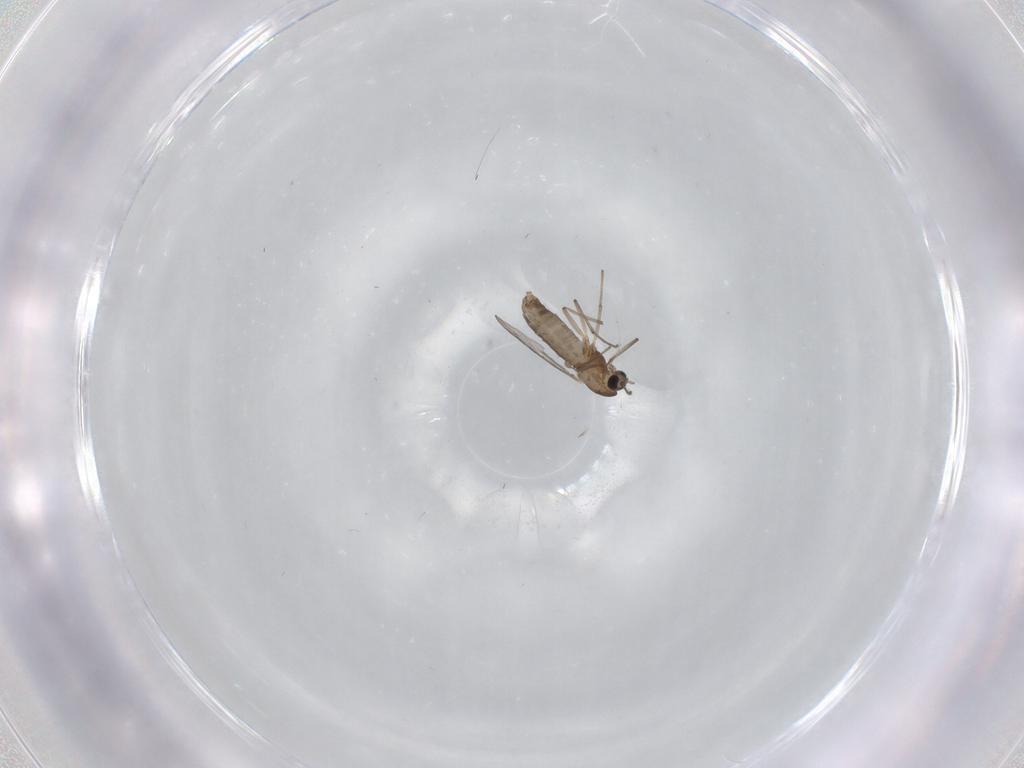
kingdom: Animalia
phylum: Arthropoda
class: Insecta
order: Diptera
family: Chironomidae
